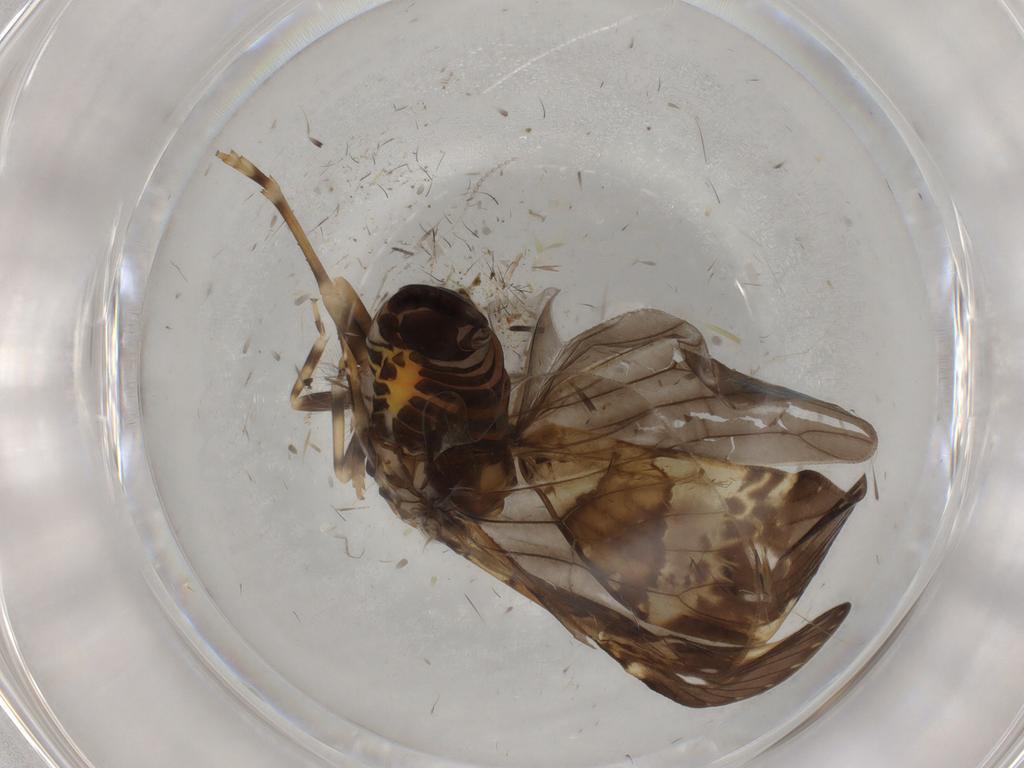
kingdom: Animalia
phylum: Arthropoda
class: Insecta
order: Hemiptera
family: Cixiidae
